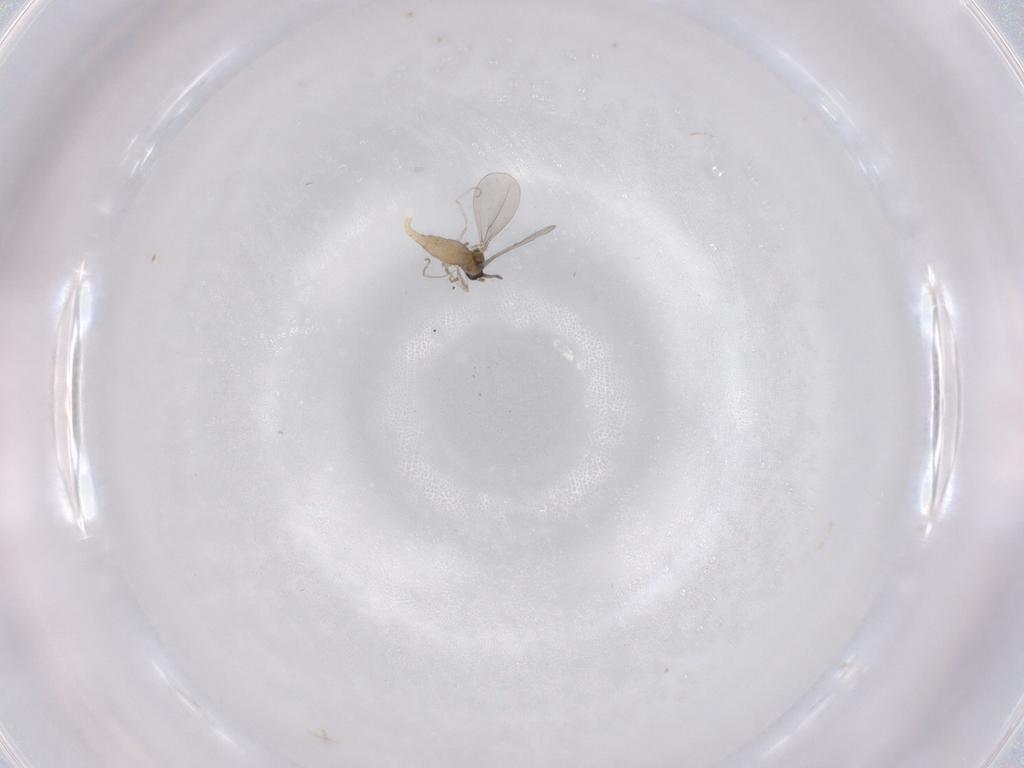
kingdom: Animalia
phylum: Arthropoda
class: Insecta
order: Diptera
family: Cecidomyiidae
